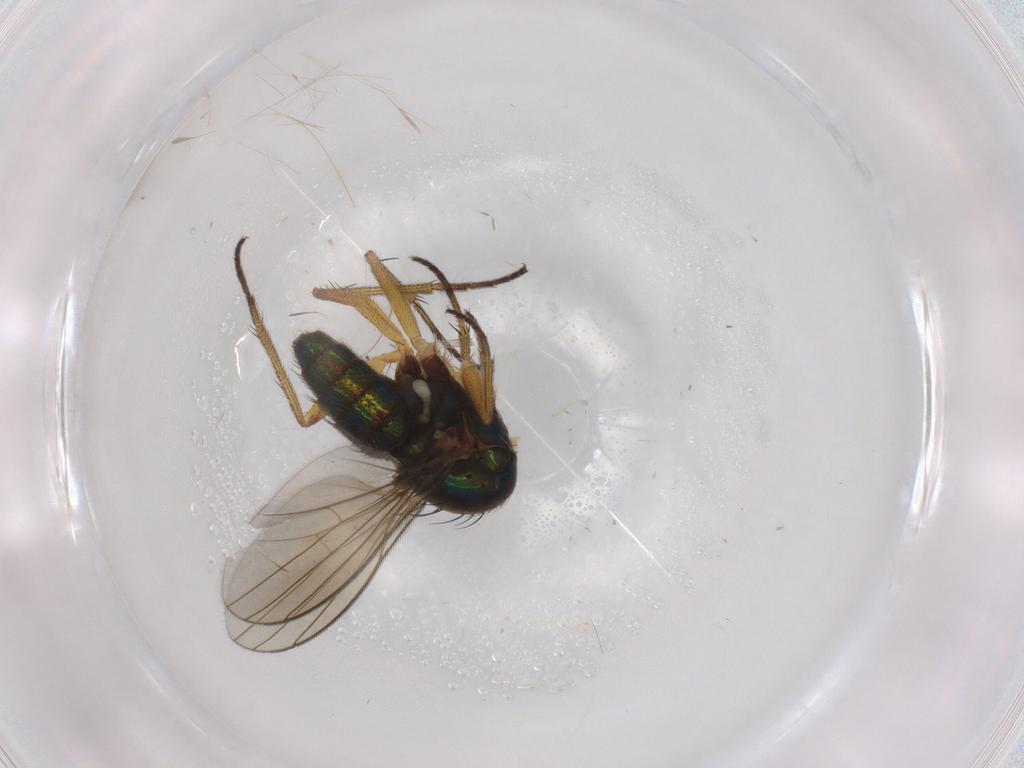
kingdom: Animalia
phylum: Arthropoda
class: Insecta
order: Diptera
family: Dolichopodidae
